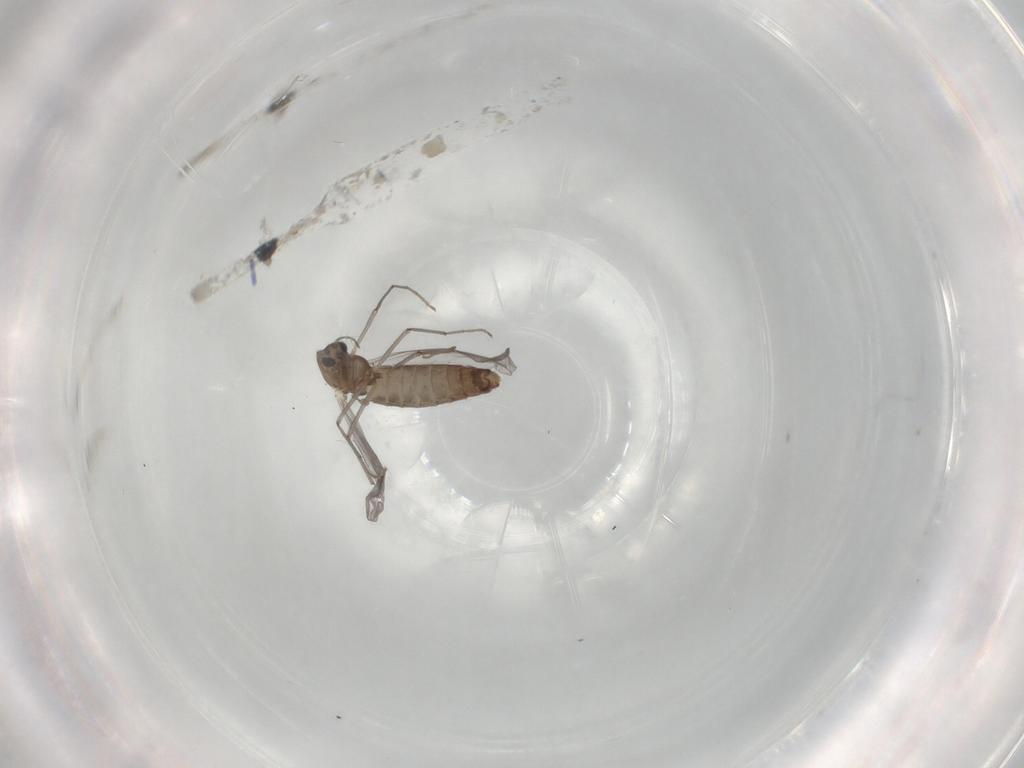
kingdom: Animalia
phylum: Arthropoda
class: Insecta
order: Diptera
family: Chironomidae
